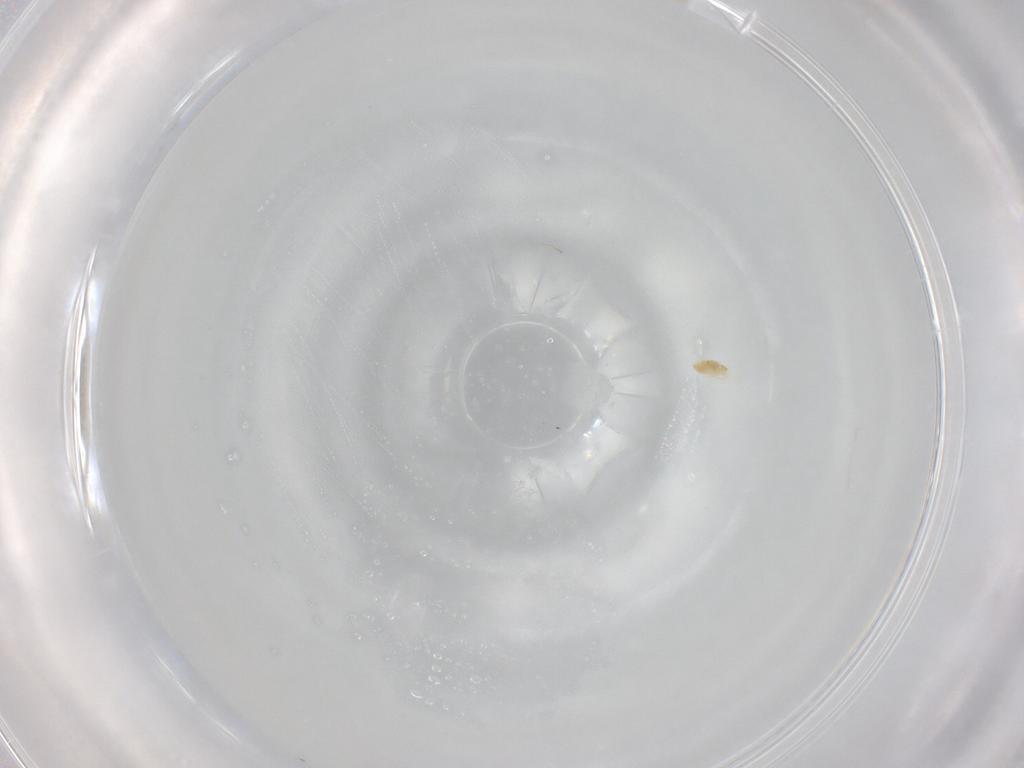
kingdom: Animalia
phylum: Arthropoda
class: Arachnida
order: Trombidiformes
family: Eupodidae
